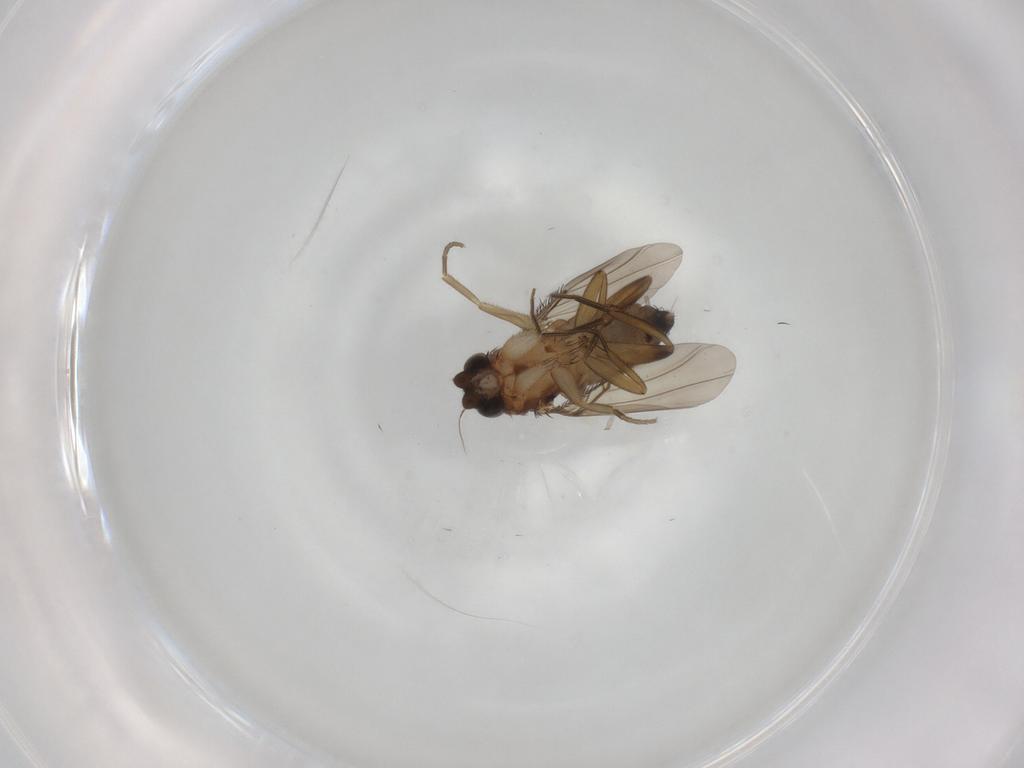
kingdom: Animalia
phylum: Arthropoda
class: Insecta
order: Diptera
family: Phoridae
